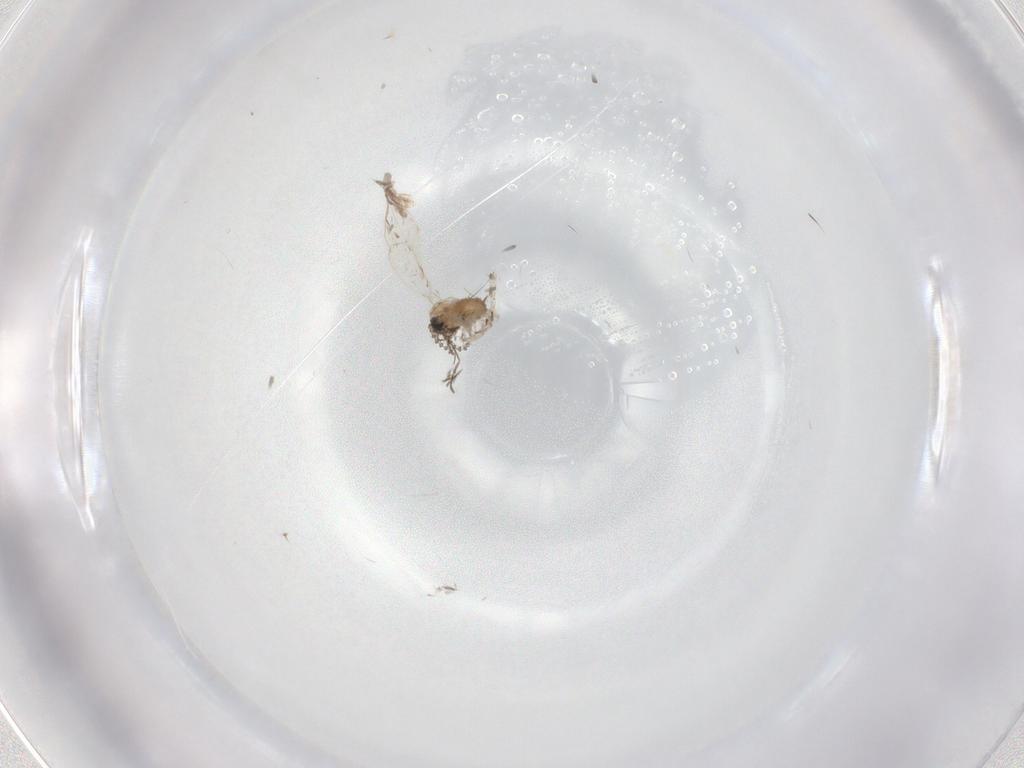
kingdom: Animalia
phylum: Arthropoda
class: Insecta
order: Diptera
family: Psychodidae
